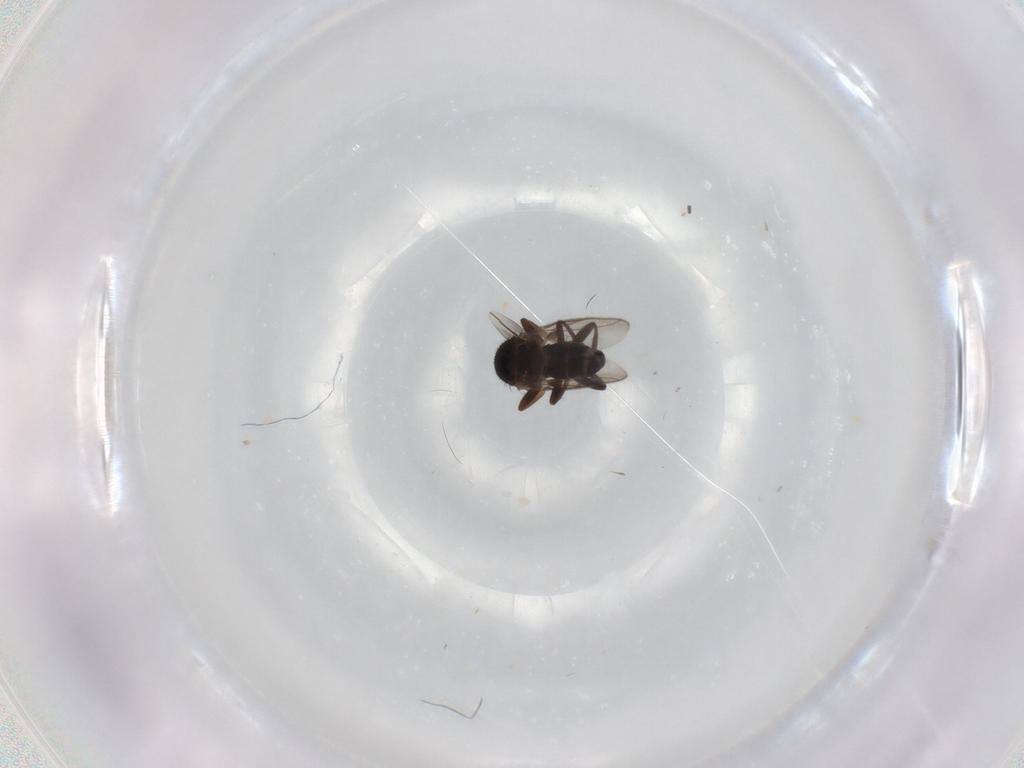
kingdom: Animalia
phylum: Arthropoda
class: Insecta
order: Diptera
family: Sphaeroceridae
